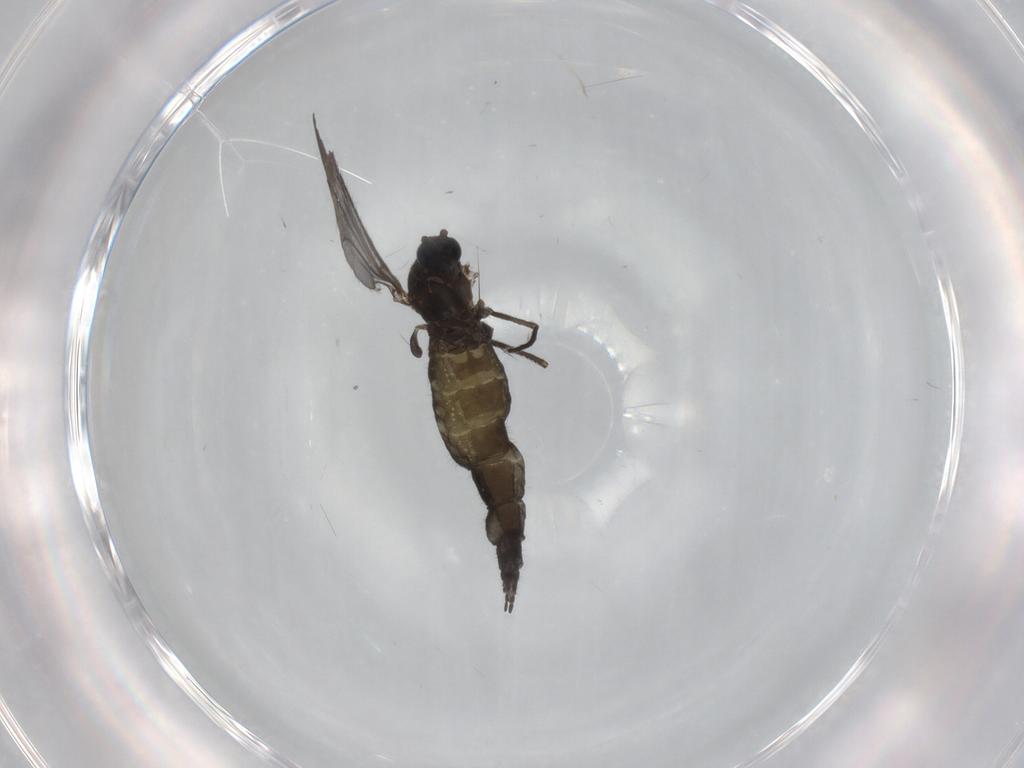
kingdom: Animalia
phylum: Arthropoda
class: Insecta
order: Diptera
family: Sciaridae
